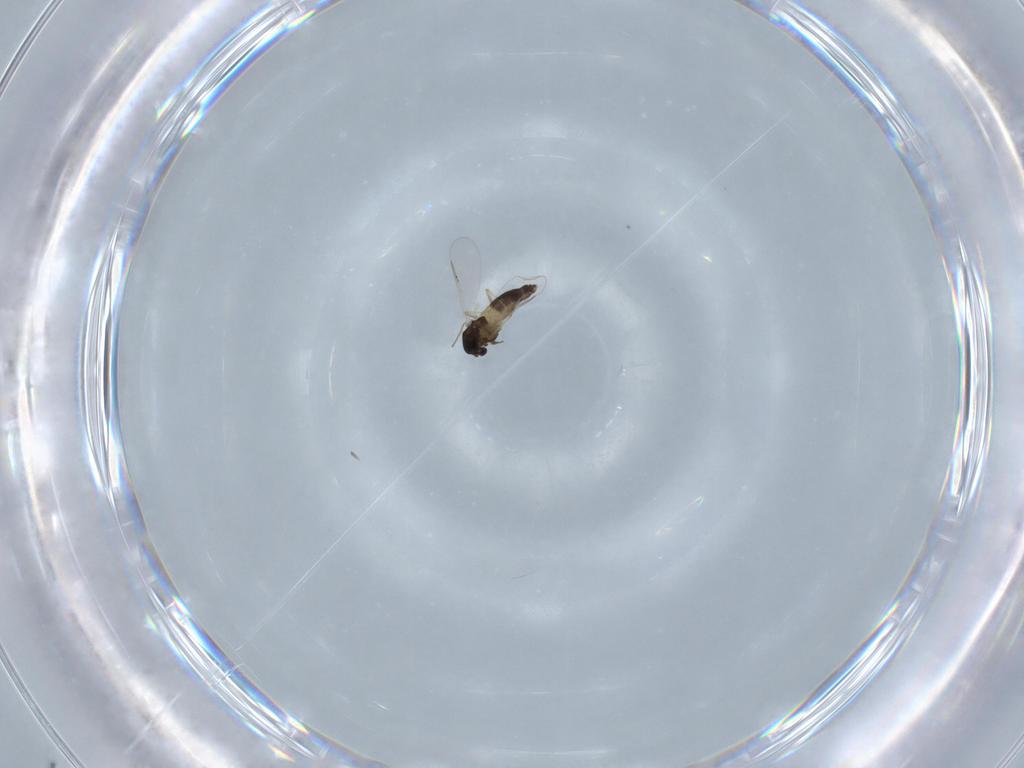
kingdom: Animalia
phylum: Arthropoda
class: Insecta
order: Diptera
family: Chironomidae
